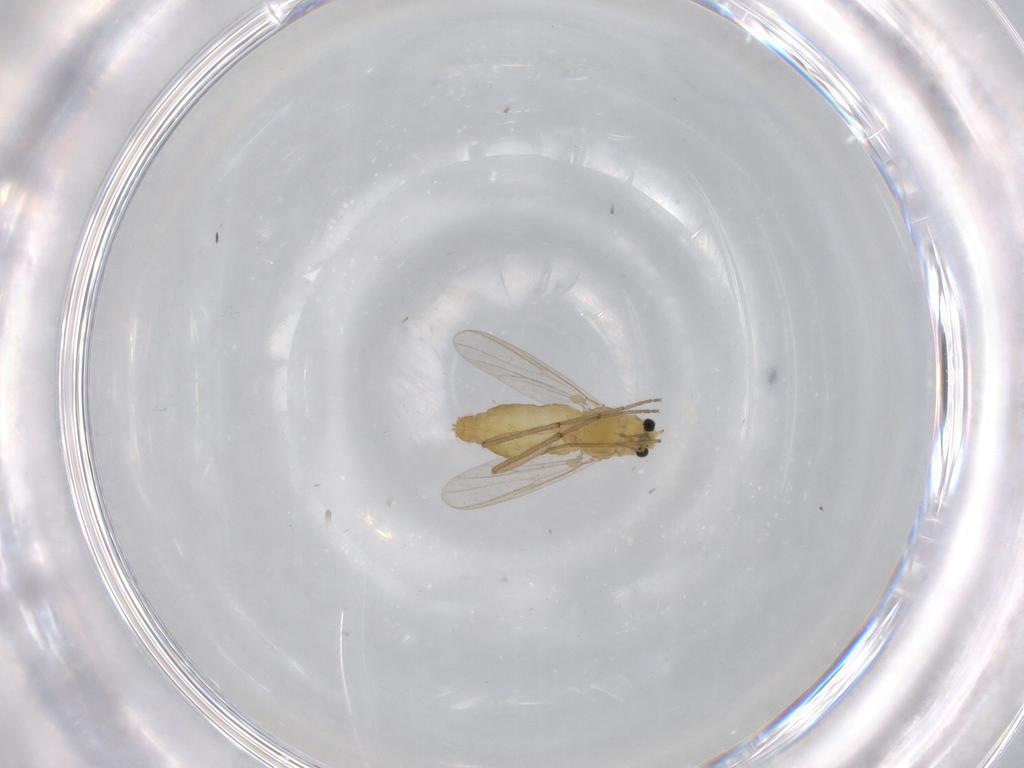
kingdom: Animalia
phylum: Arthropoda
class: Insecta
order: Diptera
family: Chironomidae
